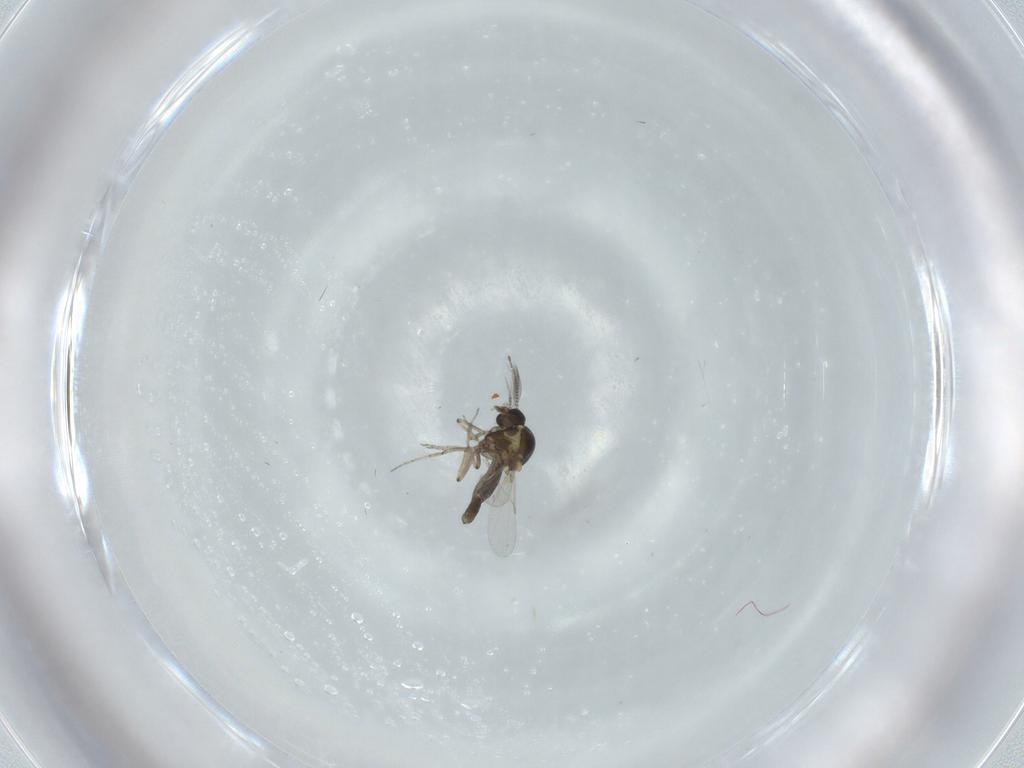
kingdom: Animalia
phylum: Arthropoda
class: Insecta
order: Diptera
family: Ceratopogonidae
